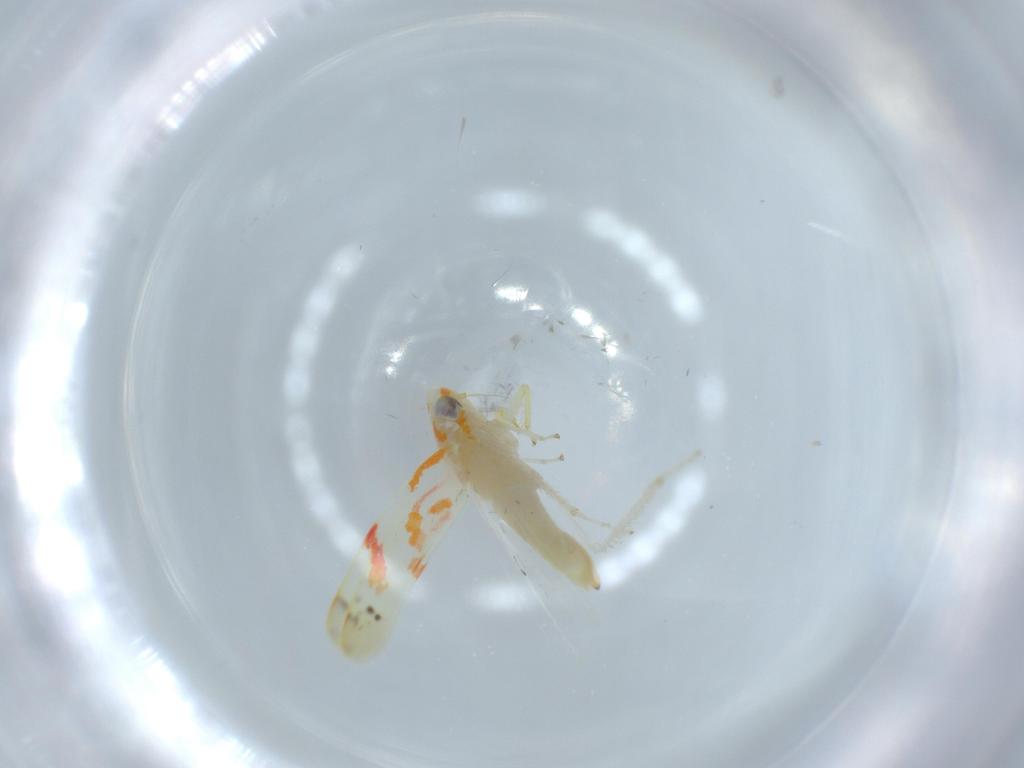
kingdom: Animalia
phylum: Arthropoda
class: Insecta
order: Hemiptera
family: Cicadellidae
